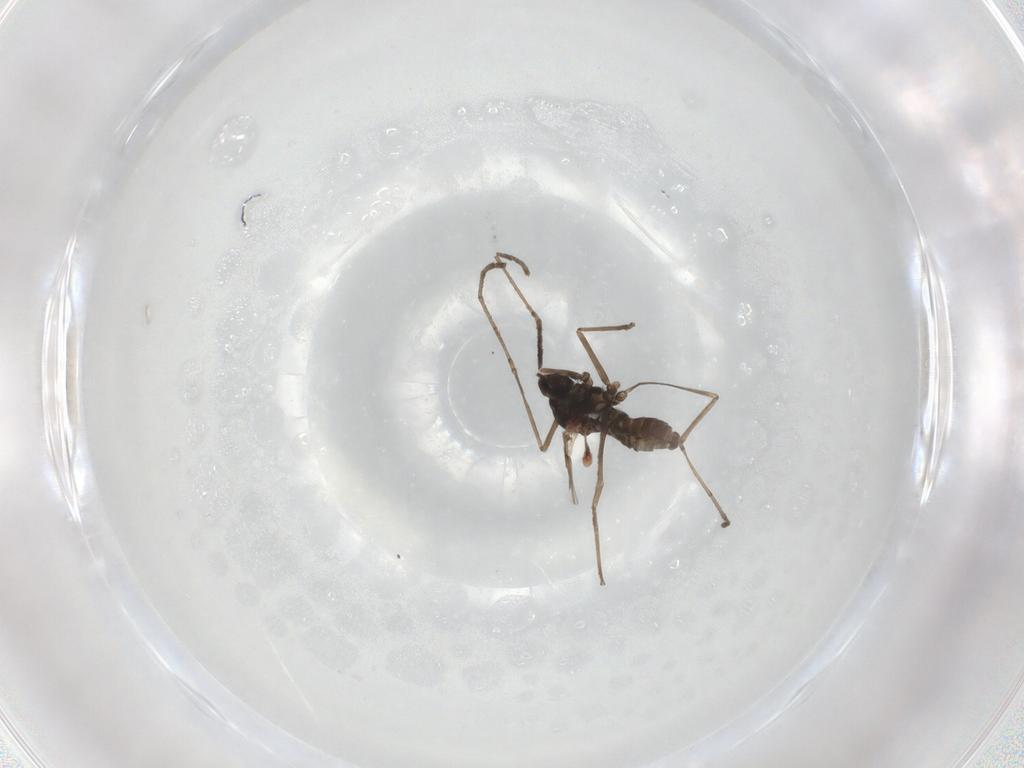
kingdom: Animalia
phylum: Arthropoda
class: Insecta
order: Diptera
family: Cecidomyiidae
